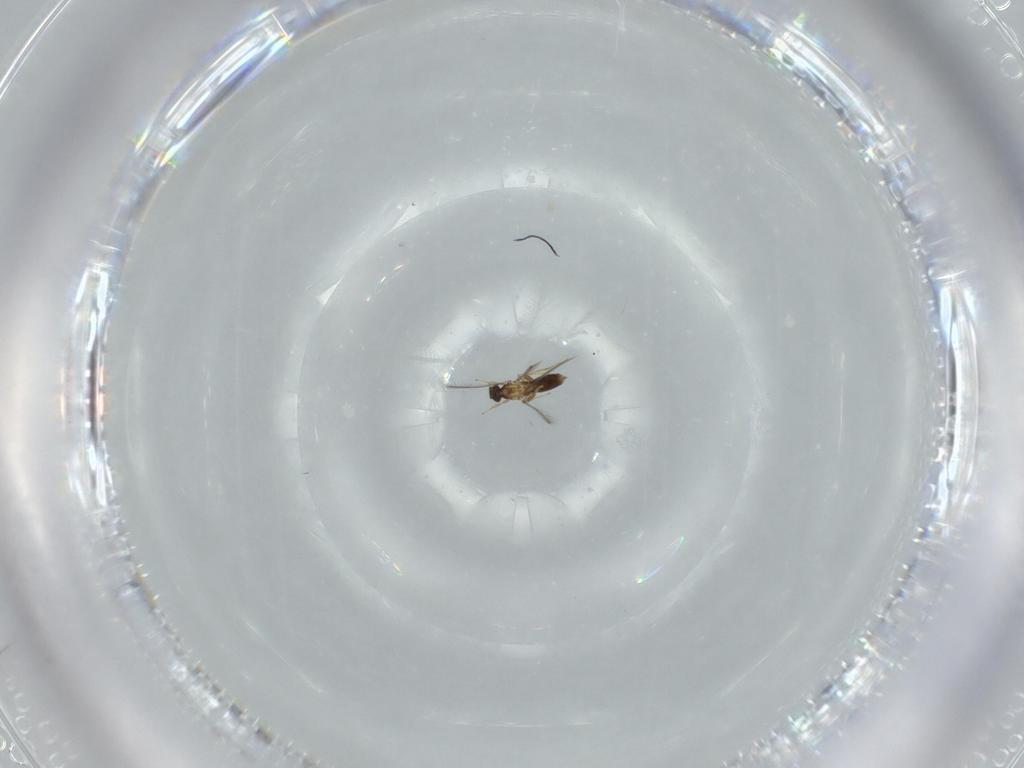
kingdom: Animalia
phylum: Arthropoda
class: Insecta
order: Hymenoptera
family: Mymaridae
